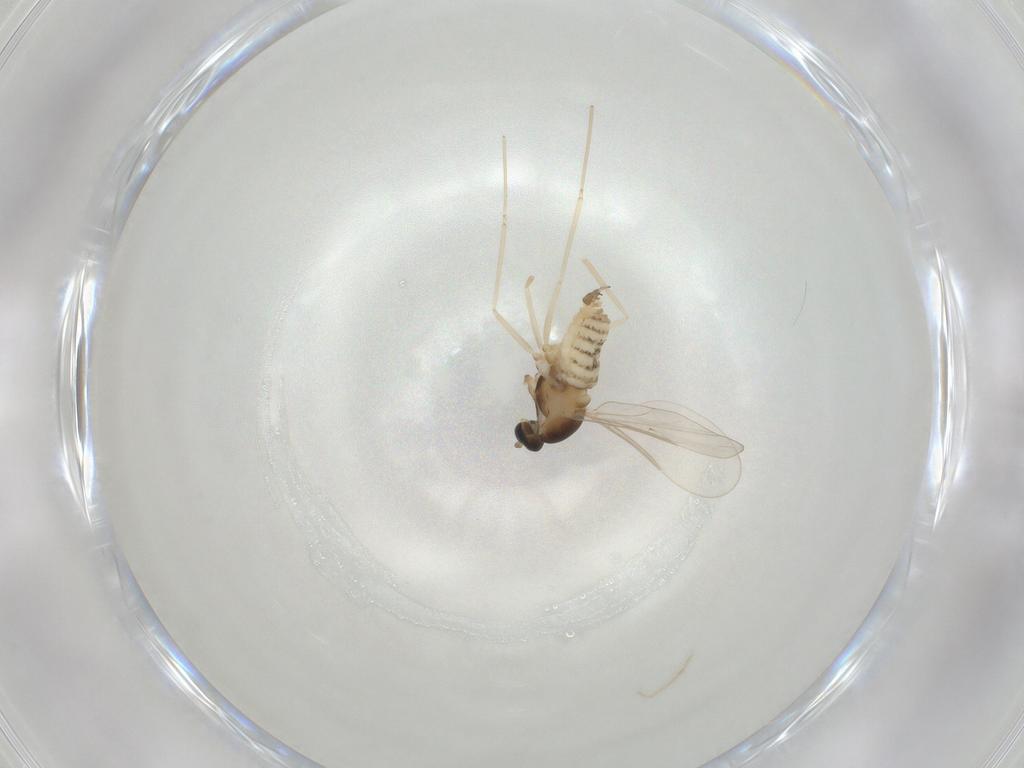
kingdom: Animalia
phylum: Arthropoda
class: Insecta
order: Diptera
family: Cecidomyiidae
